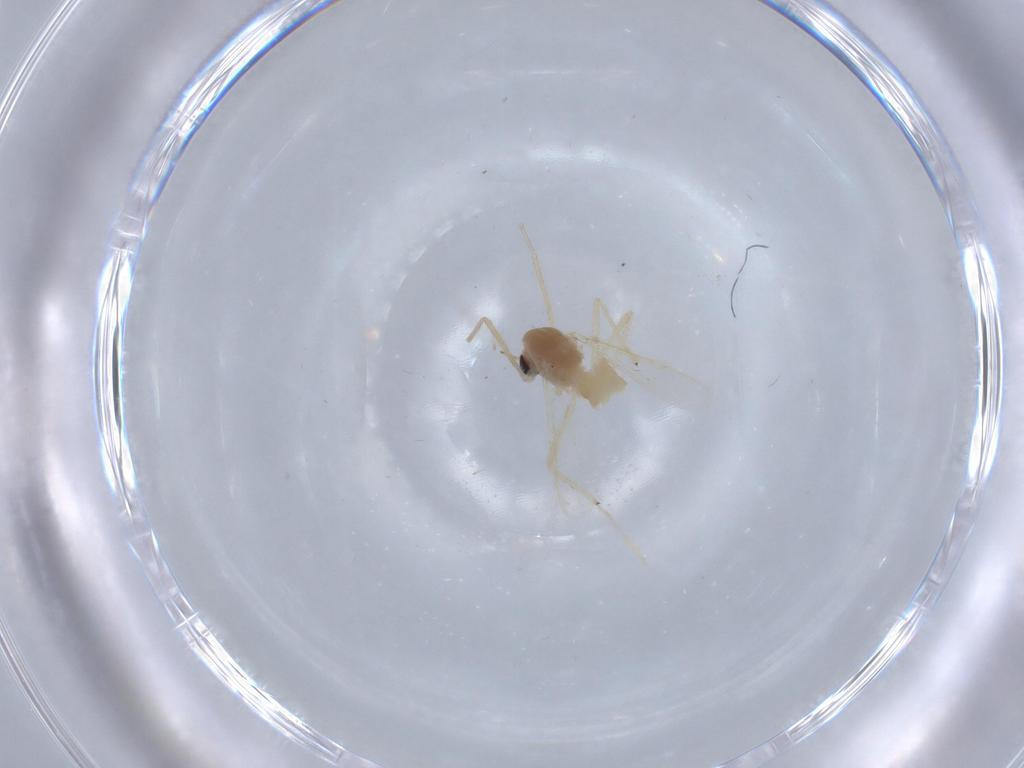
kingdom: Animalia
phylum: Arthropoda
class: Insecta
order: Diptera
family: Chironomidae
